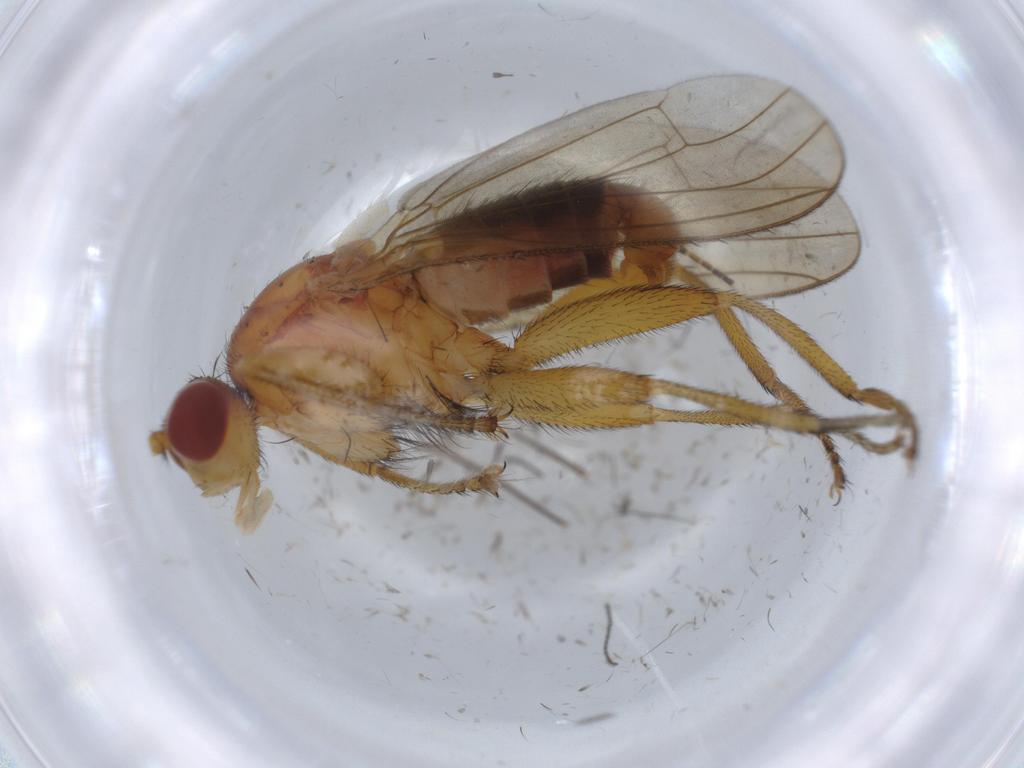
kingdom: Animalia
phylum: Arthropoda
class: Insecta
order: Diptera
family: Heleomyzidae
